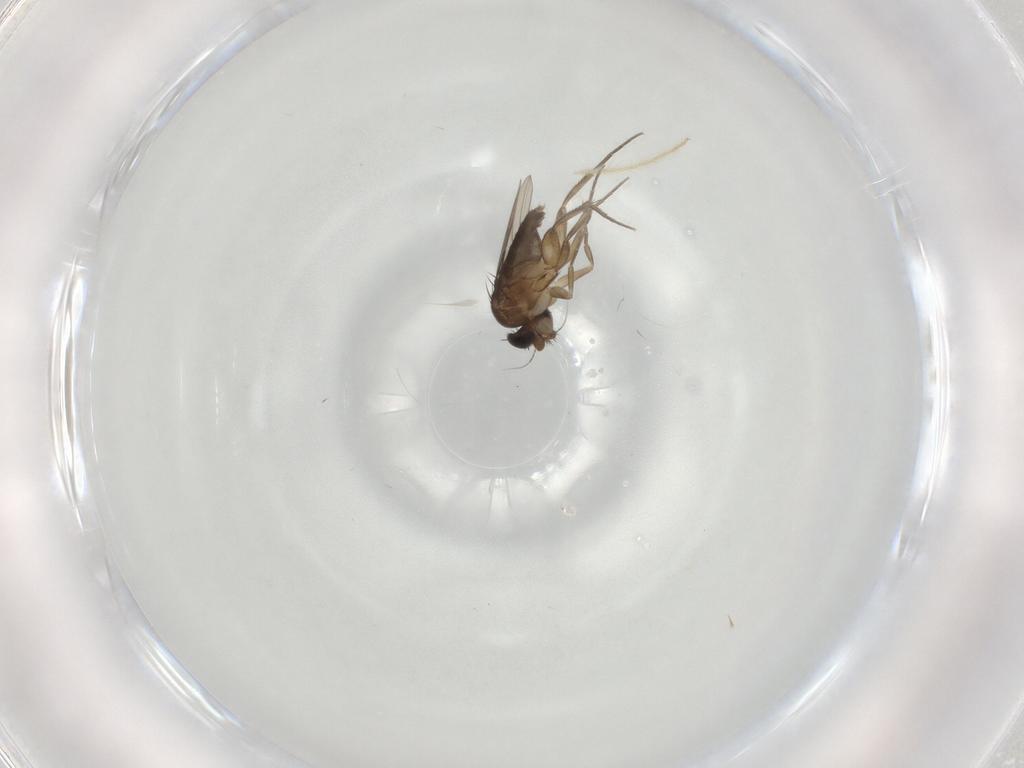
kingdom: Animalia
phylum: Arthropoda
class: Insecta
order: Diptera
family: Phoridae
